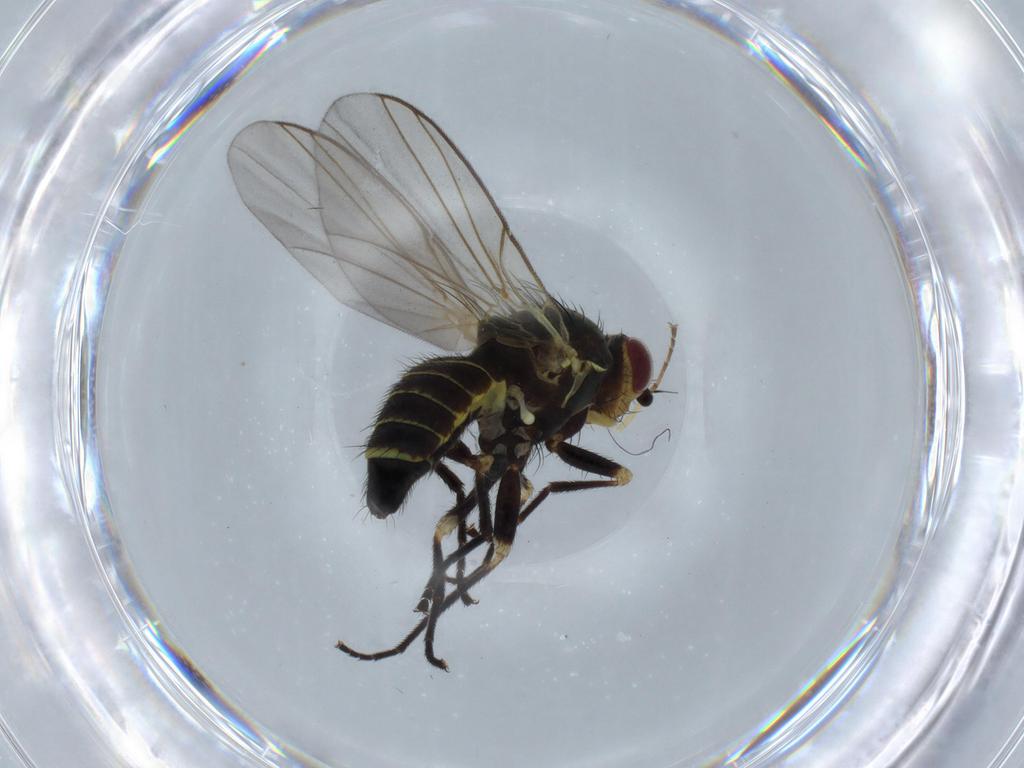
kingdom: Animalia
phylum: Arthropoda
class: Insecta
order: Diptera
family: Agromyzidae
